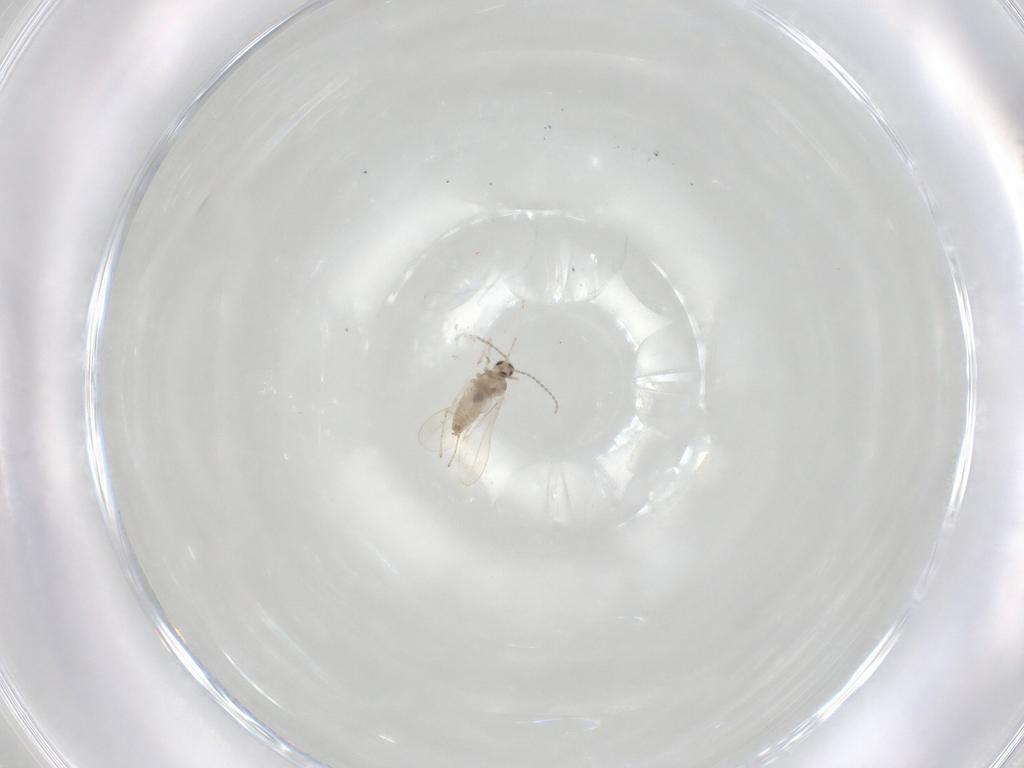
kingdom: Animalia
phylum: Arthropoda
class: Insecta
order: Diptera
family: Cecidomyiidae
